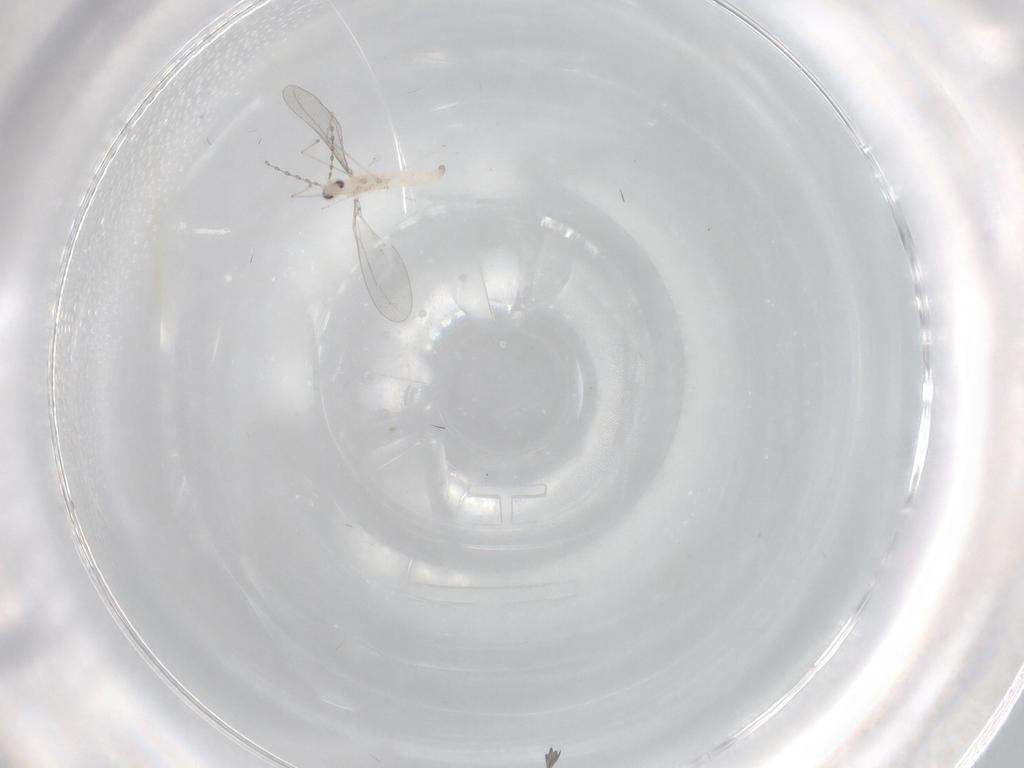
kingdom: Animalia
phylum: Arthropoda
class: Insecta
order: Diptera
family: Cecidomyiidae
